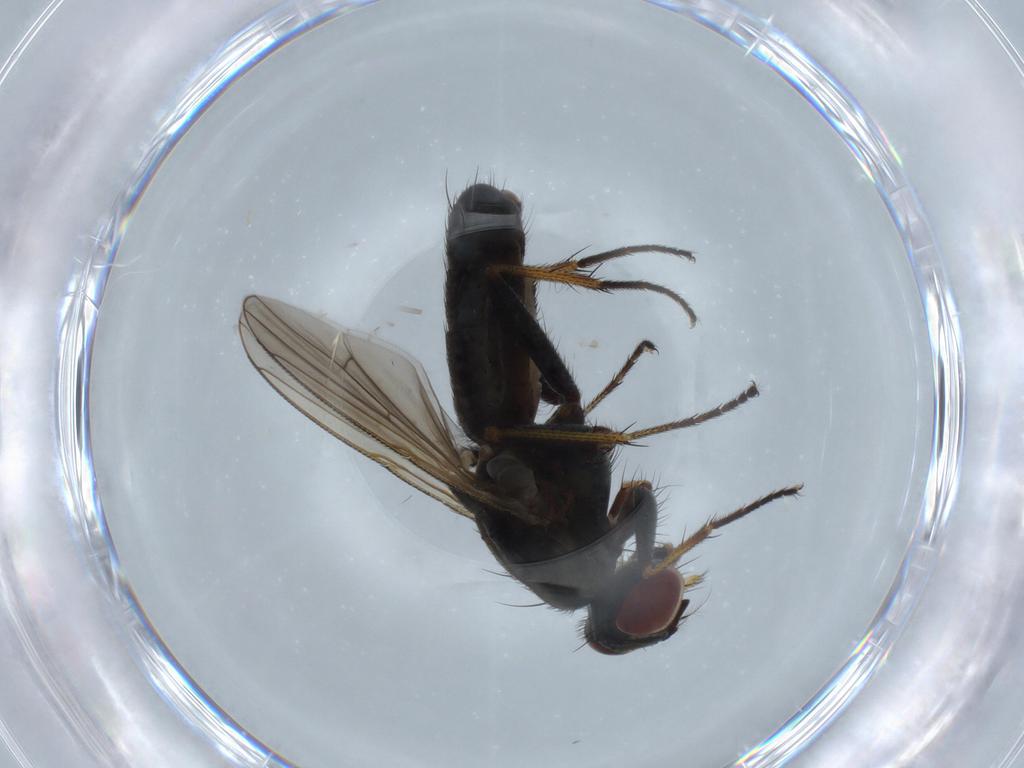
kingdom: Animalia
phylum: Arthropoda
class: Insecta
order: Diptera
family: Muscidae
